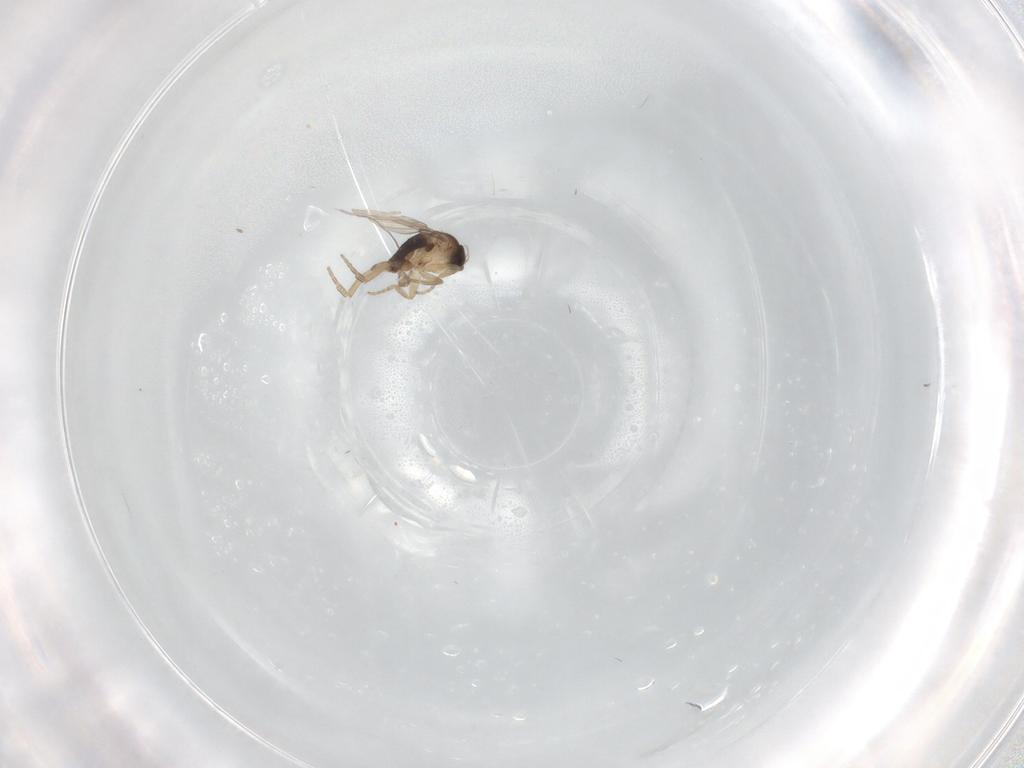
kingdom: Animalia
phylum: Arthropoda
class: Insecta
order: Diptera
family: Phoridae
